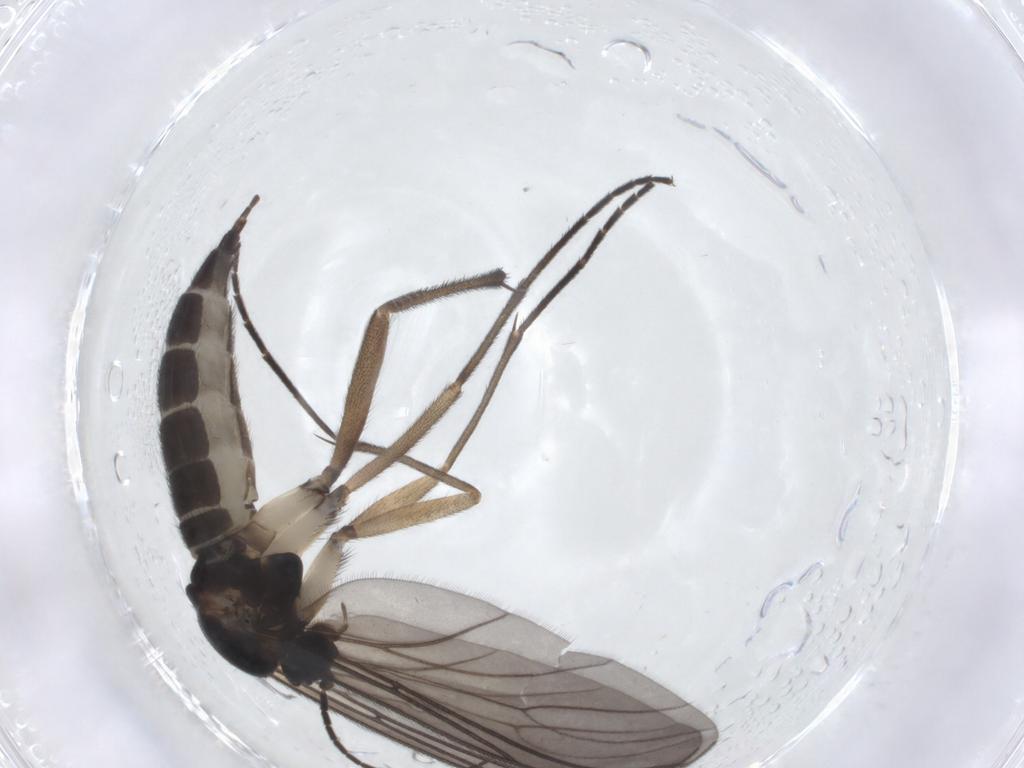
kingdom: Animalia
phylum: Arthropoda
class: Insecta
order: Diptera
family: Sciaridae
